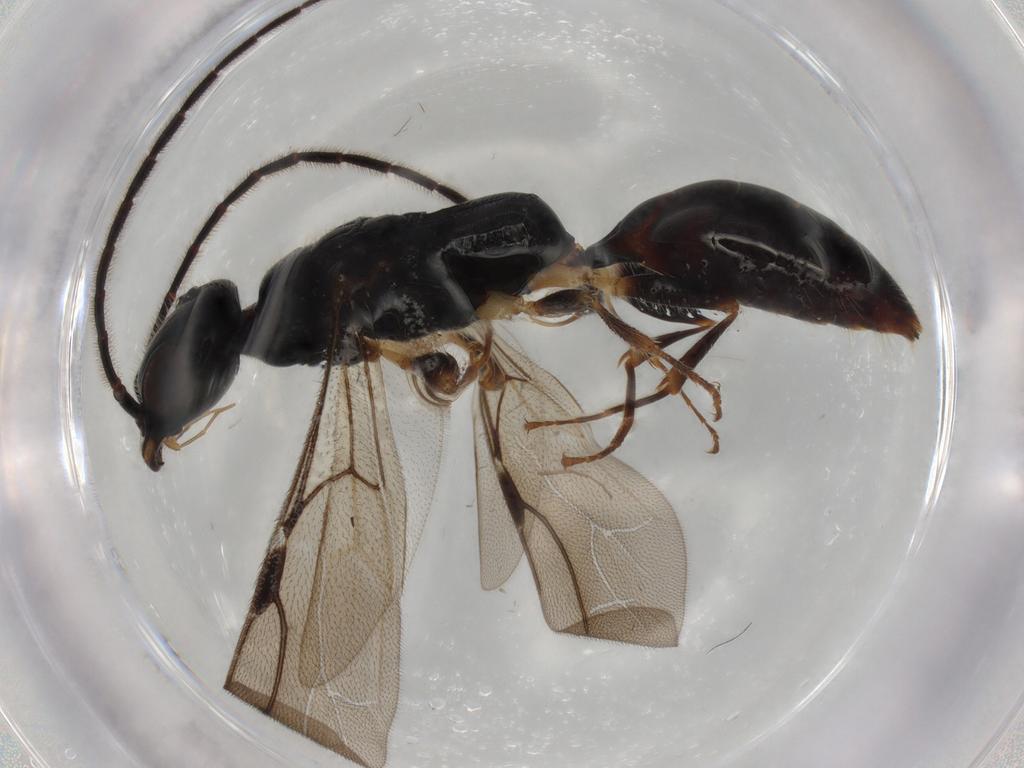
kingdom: Animalia
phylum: Arthropoda
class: Insecta
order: Hymenoptera
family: Bethylidae
